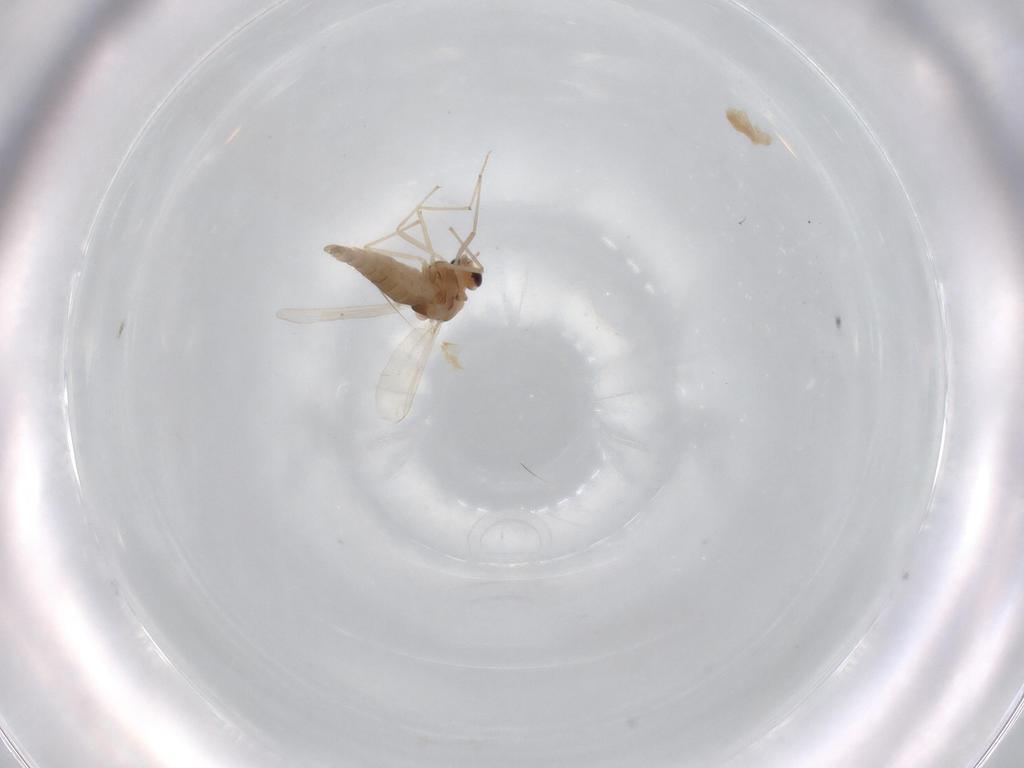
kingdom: Animalia
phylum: Arthropoda
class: Insecta
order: Diptera
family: Chironomidae
